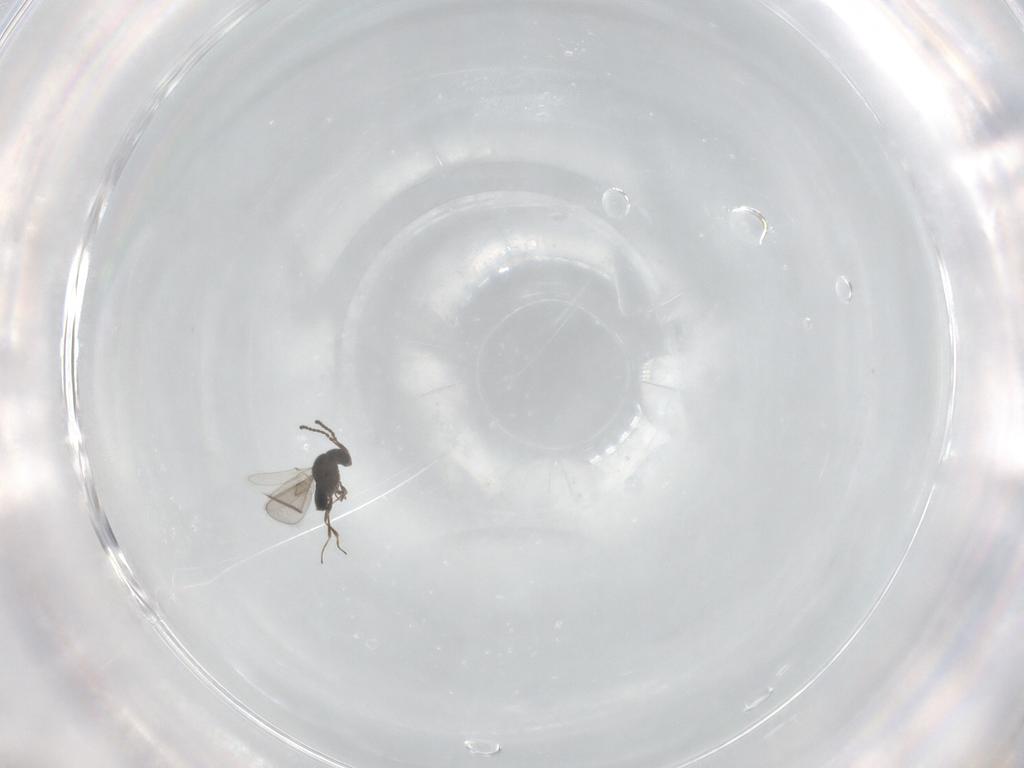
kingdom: Animalia
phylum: Arthropoda
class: Insecta
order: Hymenoptera
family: Scelionidae
